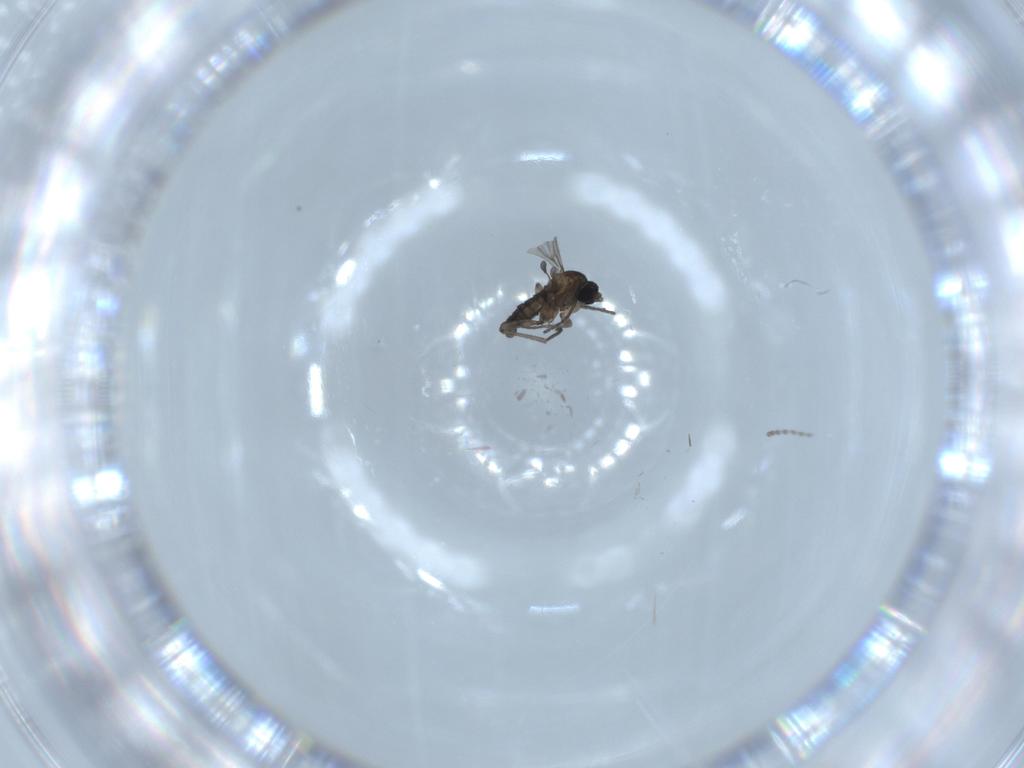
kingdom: Animalia
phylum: Arthropoda
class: Insecta
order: Diptera
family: Cecidomyiidae
